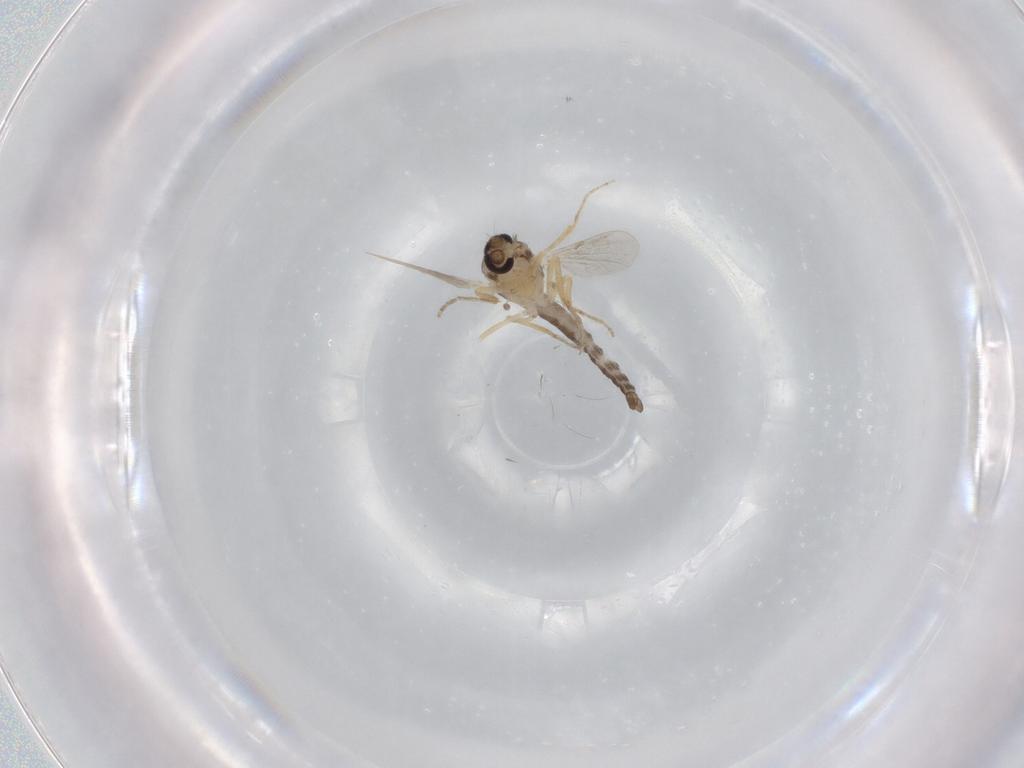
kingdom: Animalia
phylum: Arthropoda
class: Insecta
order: Diptera
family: Ceratopogonidae
